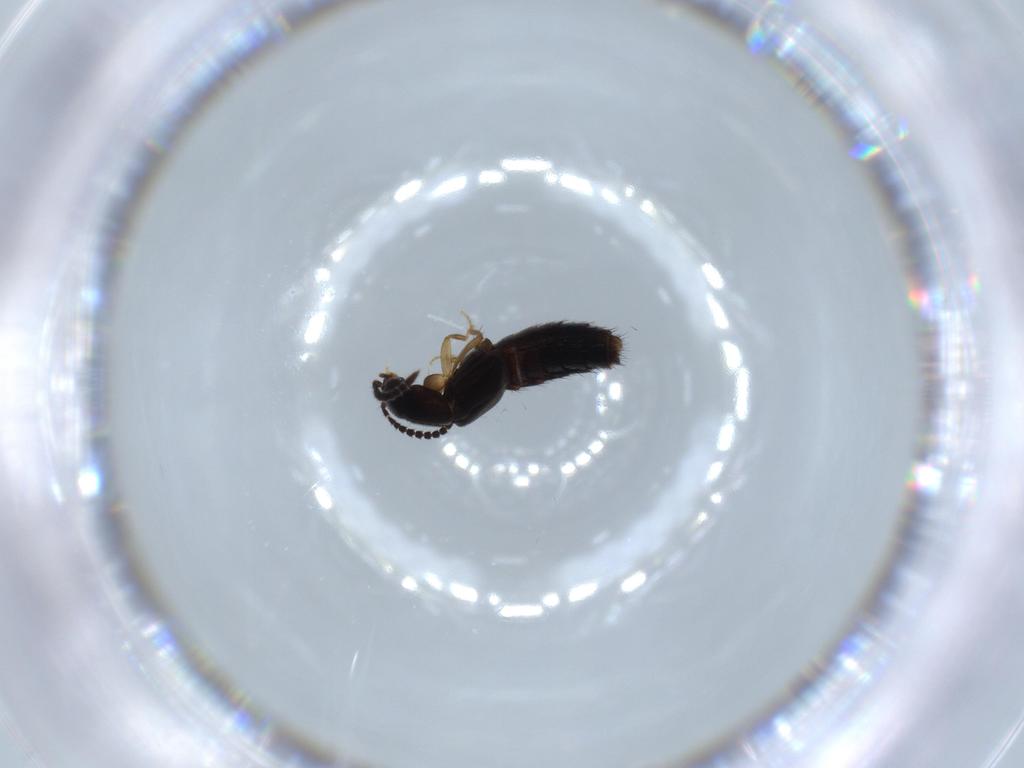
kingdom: Animalia
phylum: Arthropoda
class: Insecta
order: Coleoptera
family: Staphylinidae
